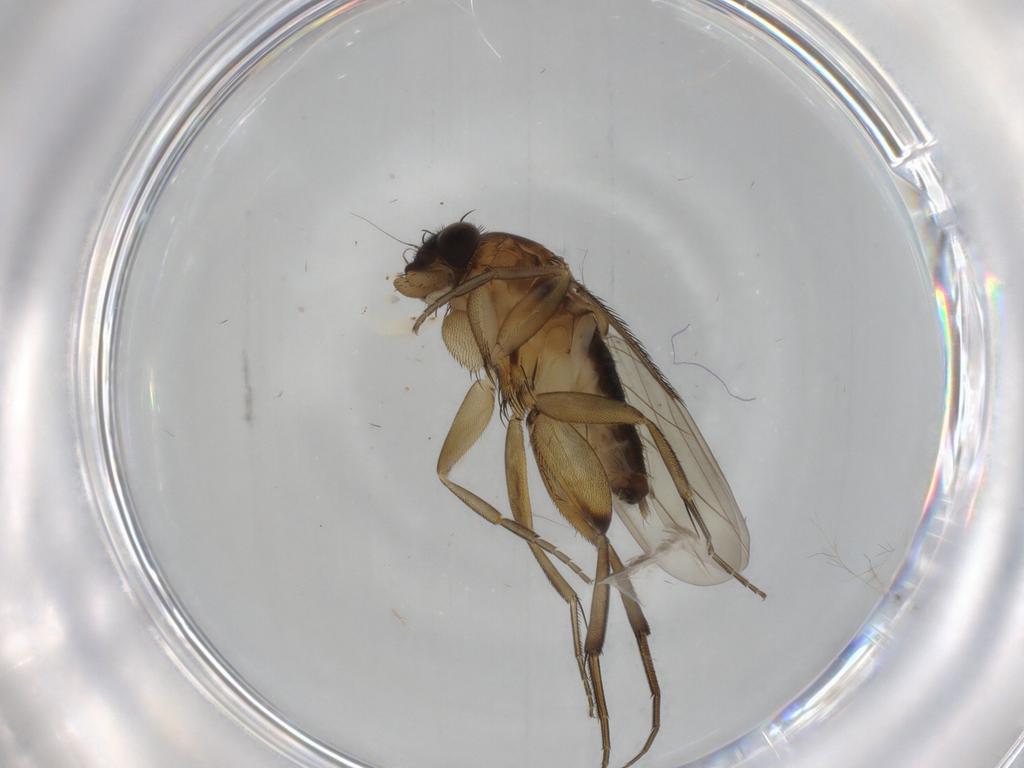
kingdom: Animalia
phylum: Arthropoda
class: Insecta
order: Diptera
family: Phoridae
